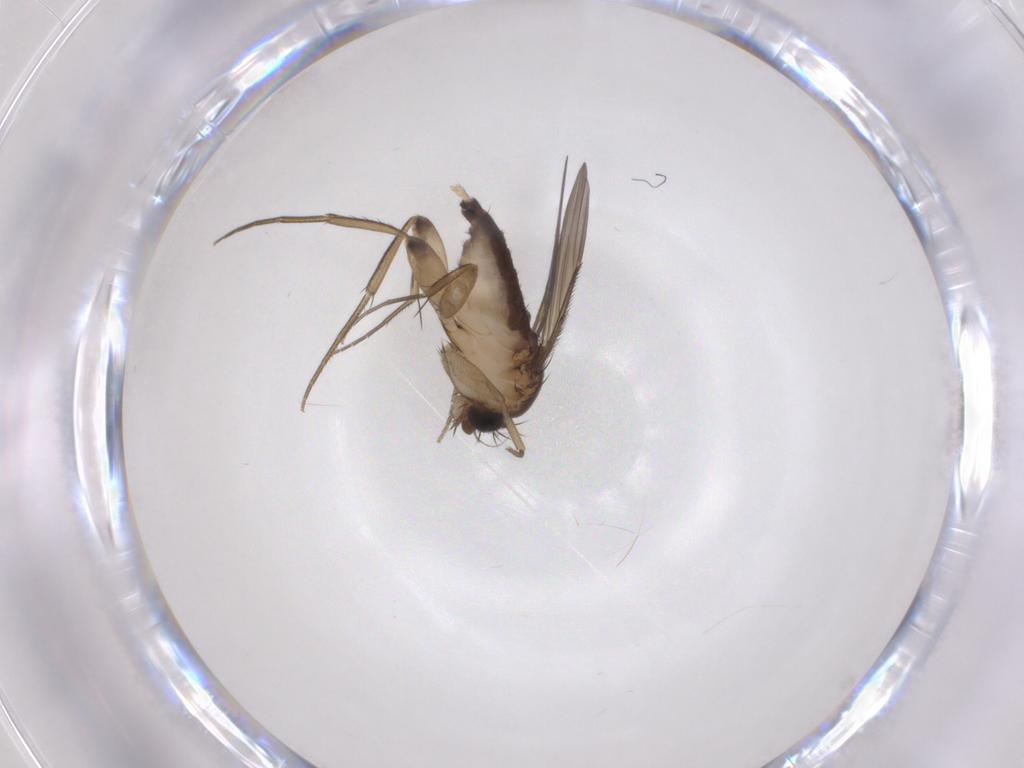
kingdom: Animalia
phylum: Arthropoda
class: Insecta
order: Diptera
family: Phoridae
